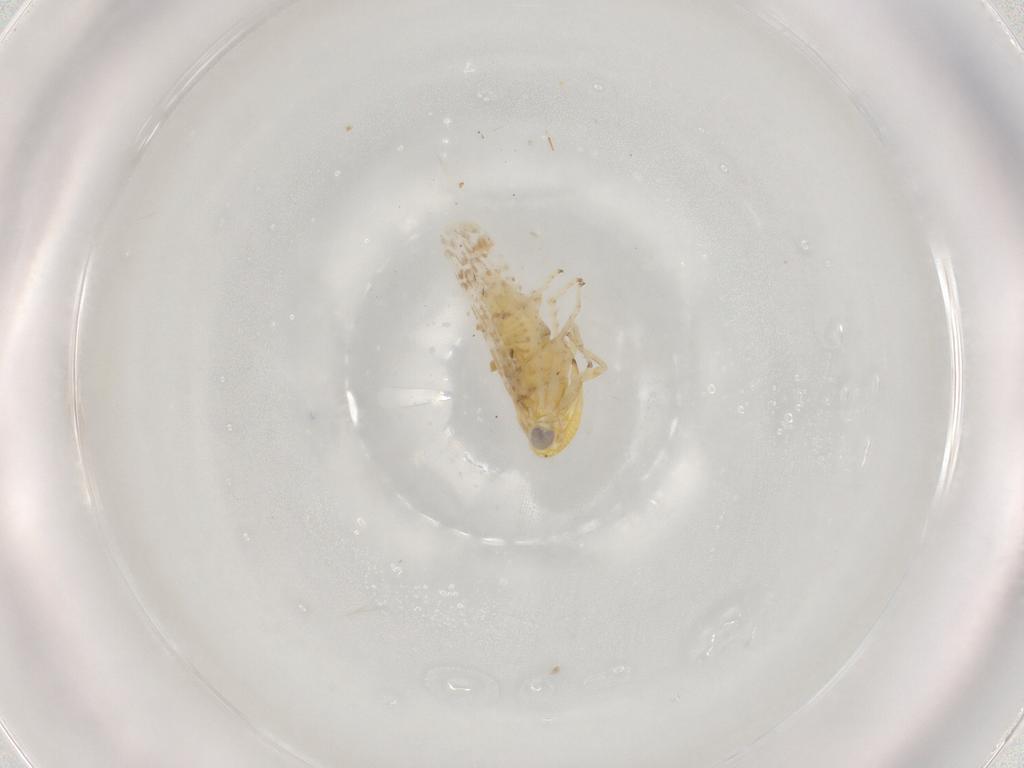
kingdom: Animalia
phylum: Arthropoda
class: Insecta
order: Hemiptera
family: Cicadellidae
